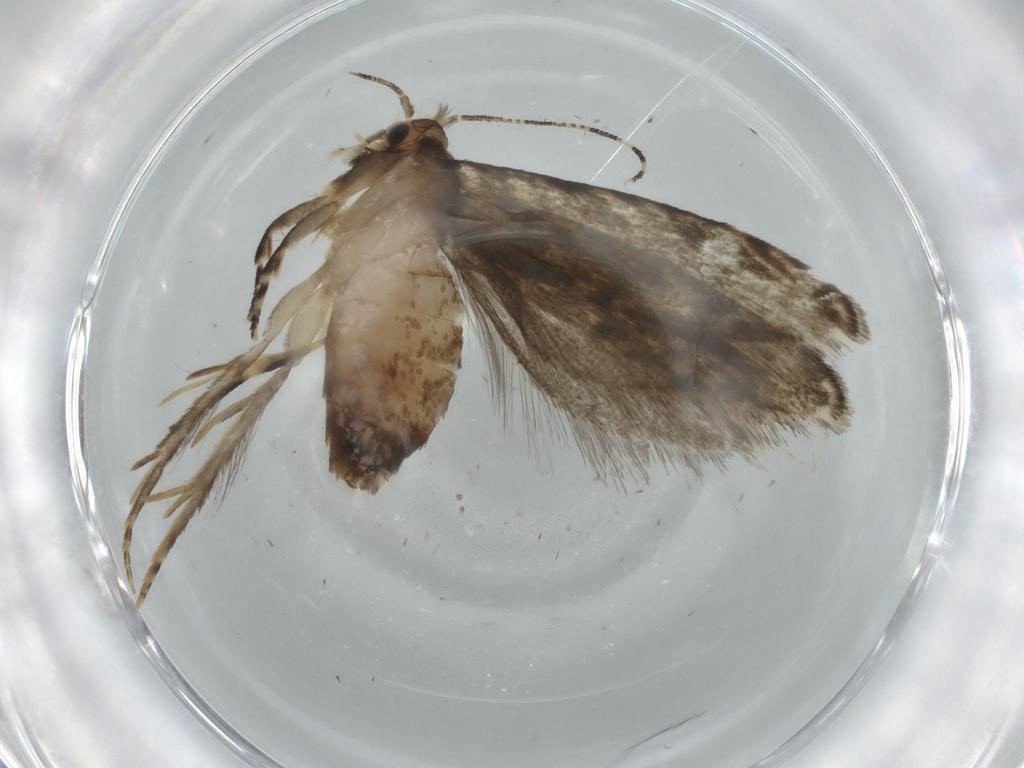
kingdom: Animalia
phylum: Arthropoda
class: Insecta
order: Lepidoptera
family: Tineidae
